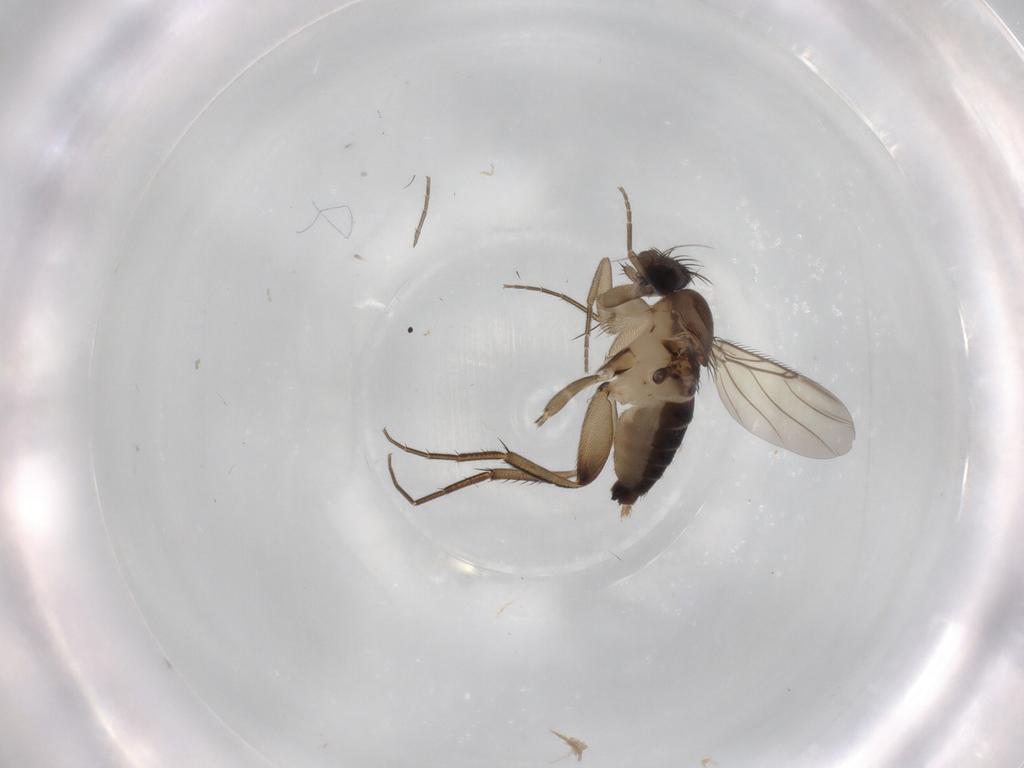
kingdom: Animalia
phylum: Arthropoda
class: Insecta
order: Diptera
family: Phoridae
